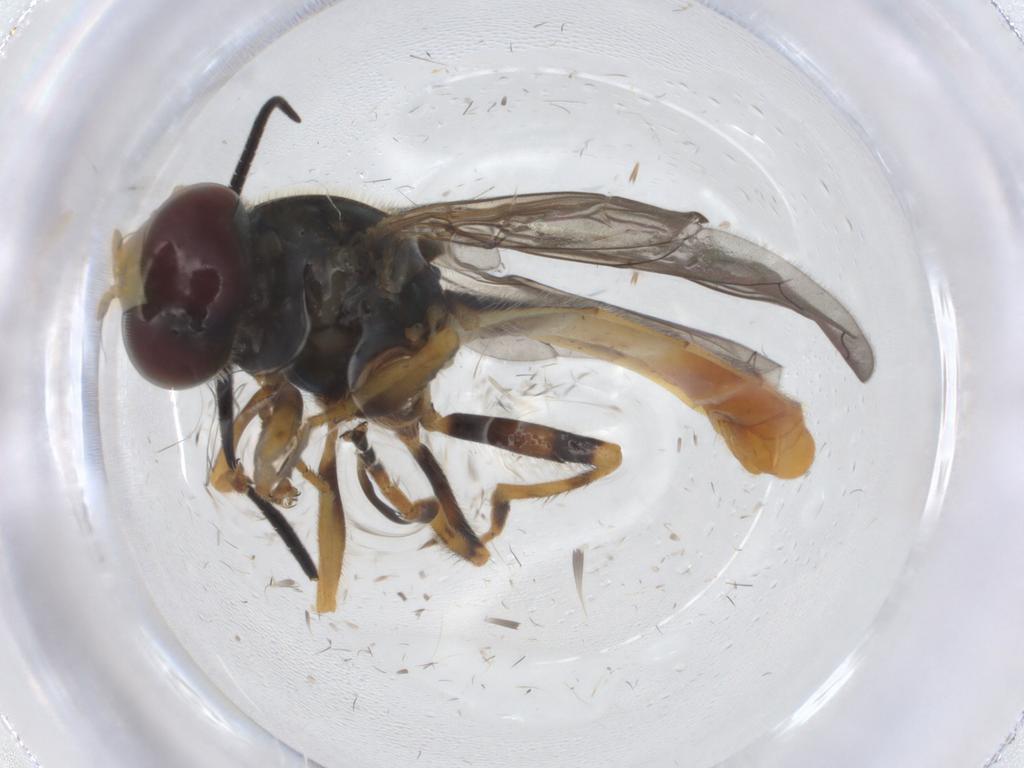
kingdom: Animalia
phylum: Arthropoda
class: Insecta
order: Diptera
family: Syrphidae
